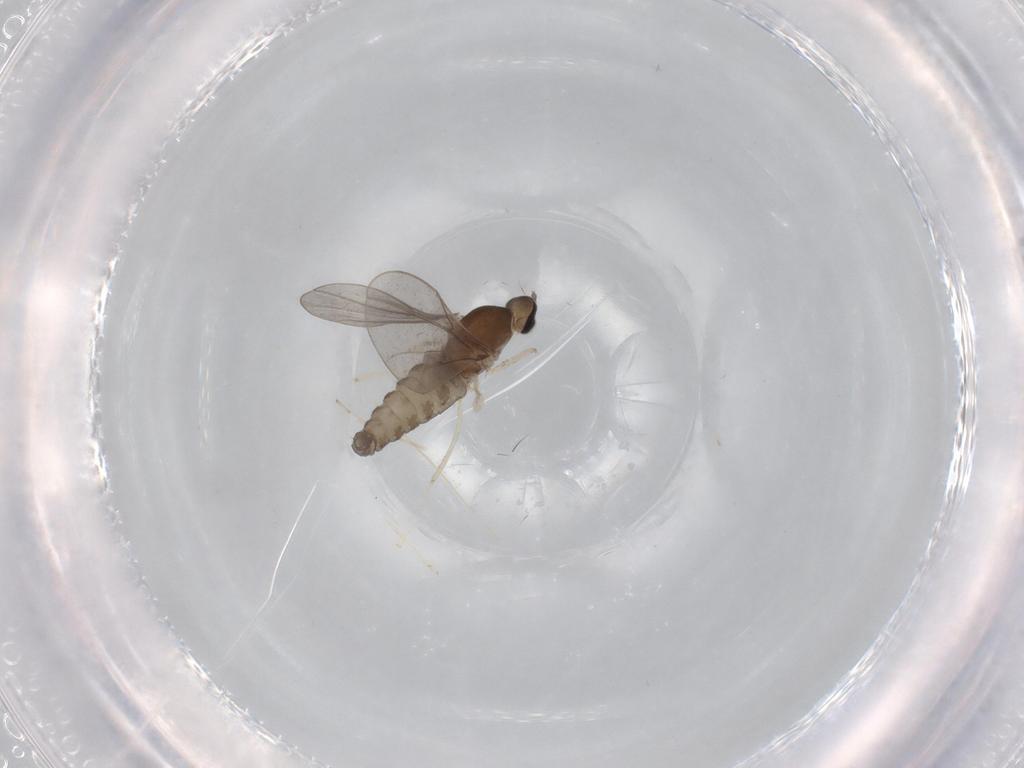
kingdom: Animalia
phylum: Arthropoda
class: Insecta
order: Diptera
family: Cecidomyiidae
